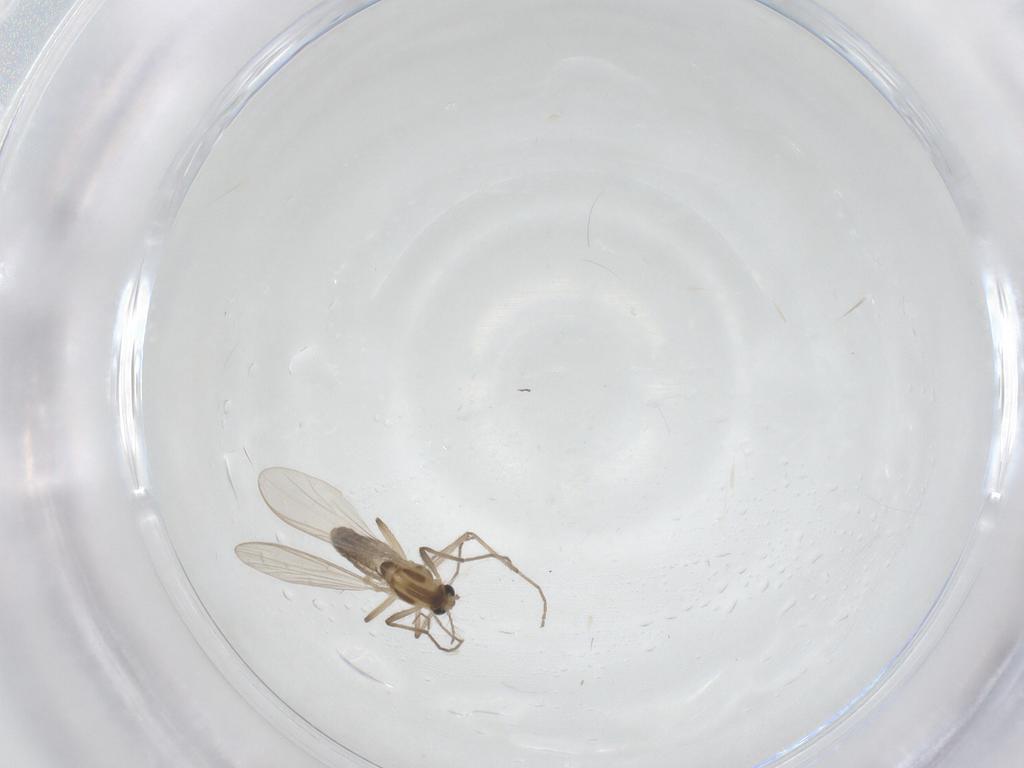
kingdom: Animalia
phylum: Arthropoda
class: Insecta
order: Diptera
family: Chironomidae
